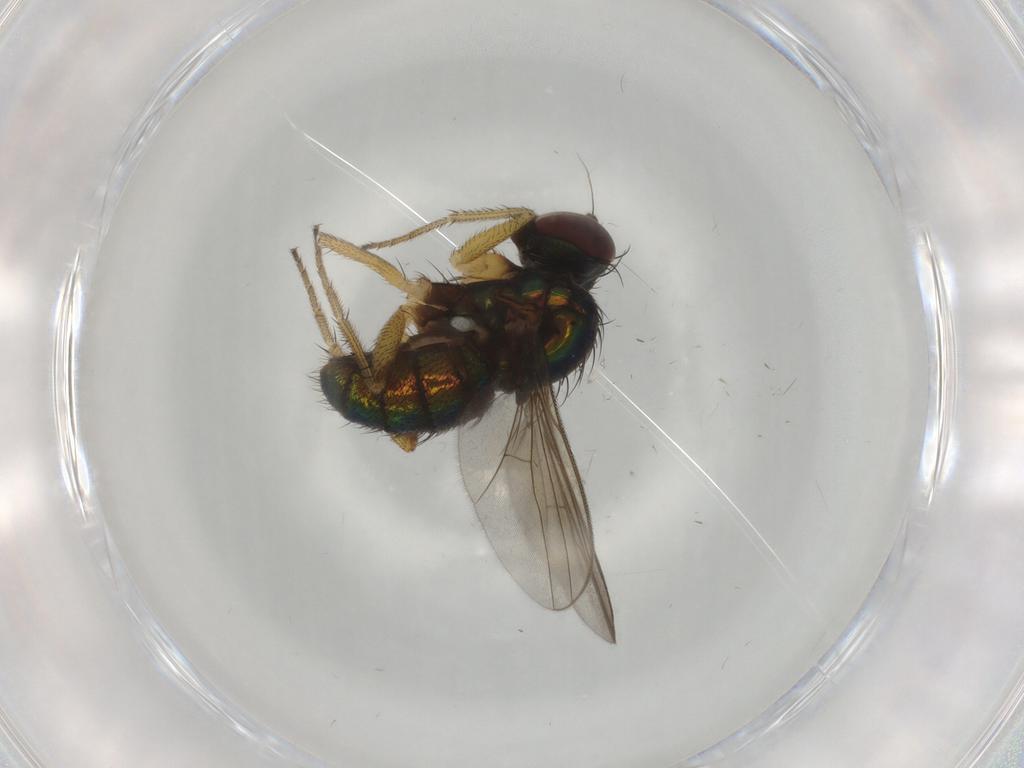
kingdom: Animalia
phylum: Arthropoda
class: Insecta
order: Diptera
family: Dolichopodidae
